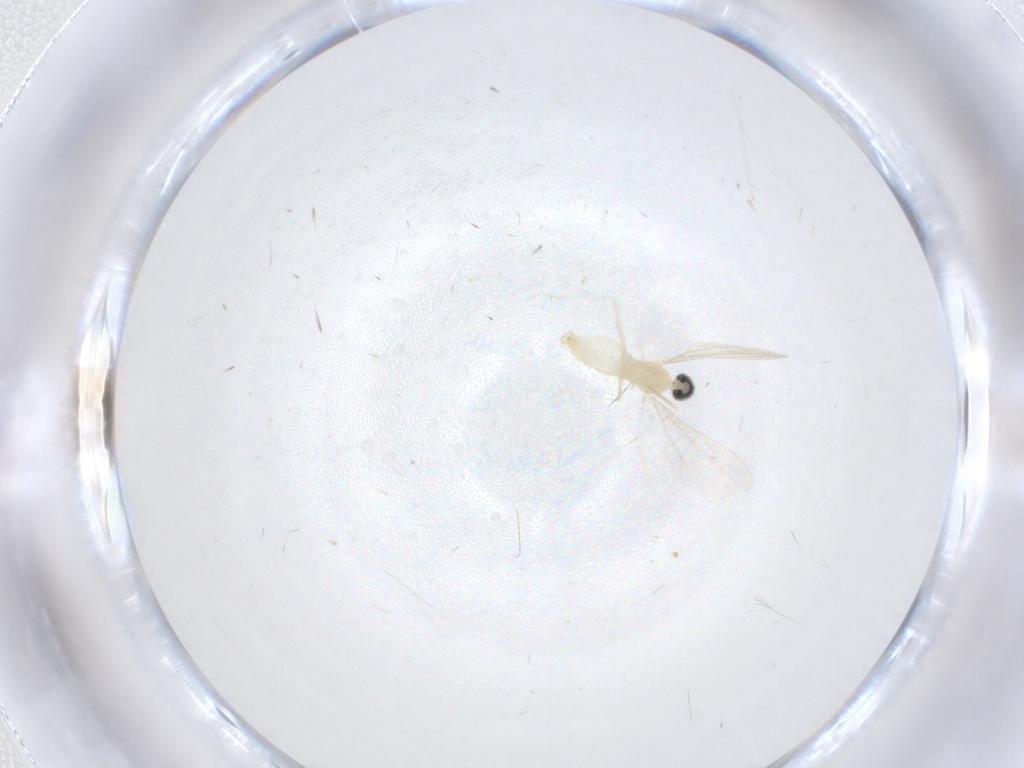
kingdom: Animalia
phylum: Arthropoda
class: Insecta
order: Diptera
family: Cecidomyiidae
